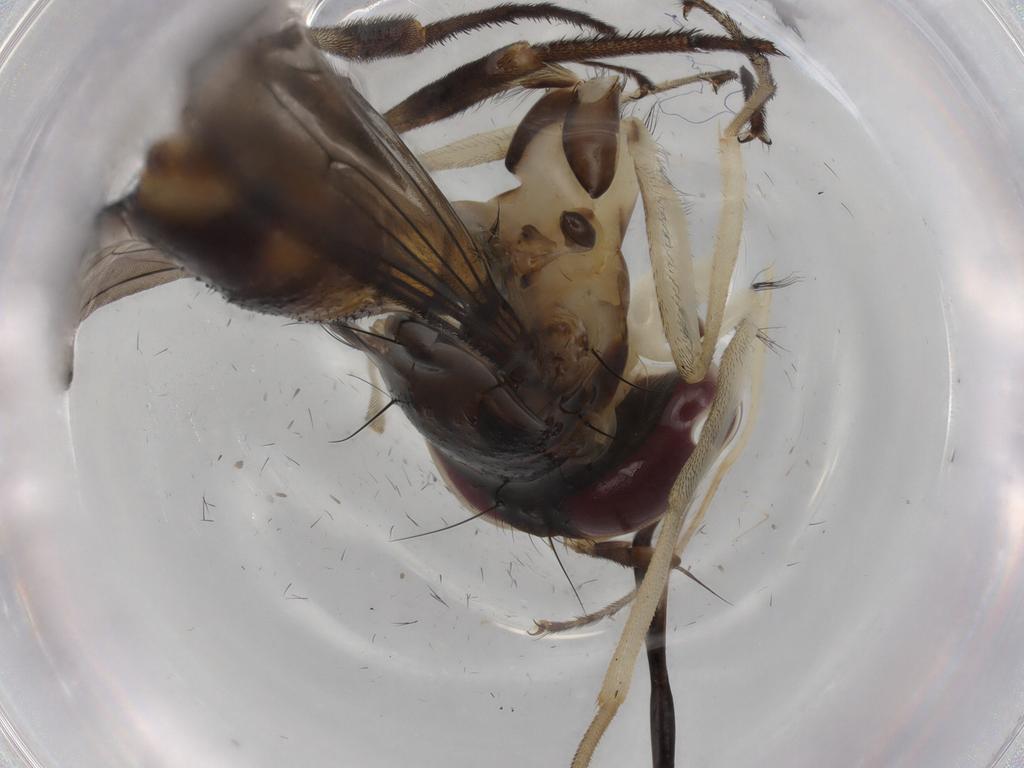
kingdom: Animalia
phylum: Arthropoda
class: Insecta
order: Diptera
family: Phoridae
